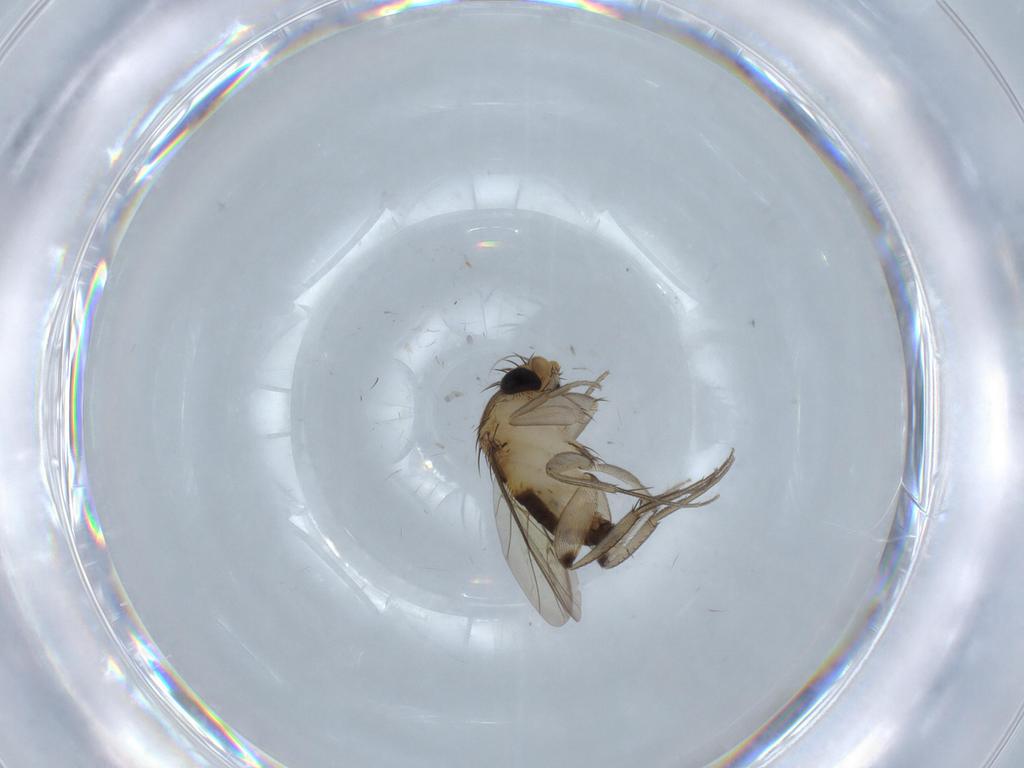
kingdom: Animalia
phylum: Arthropoda
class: Insecta
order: Diptera
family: Phoridae
